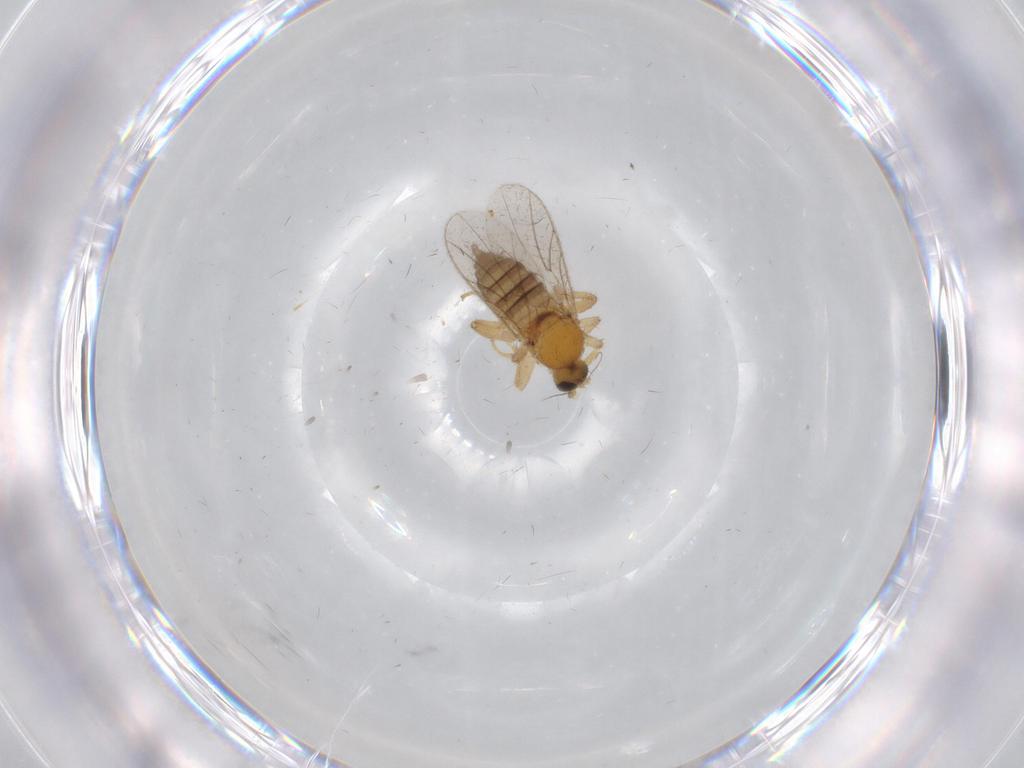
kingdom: Animalia
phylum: Arthropoda
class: Insecta
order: Diptera
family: Hybotidae
